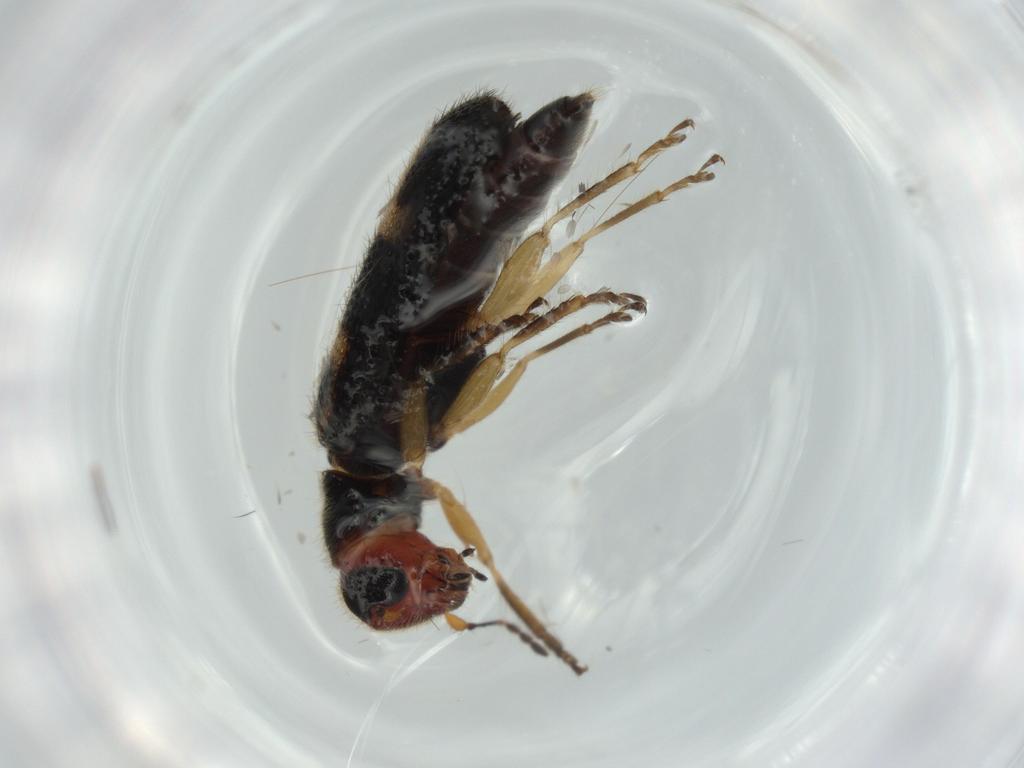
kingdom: Animalia
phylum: Arthropoda
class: Insecta
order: Coleoptera
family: Cleridae
